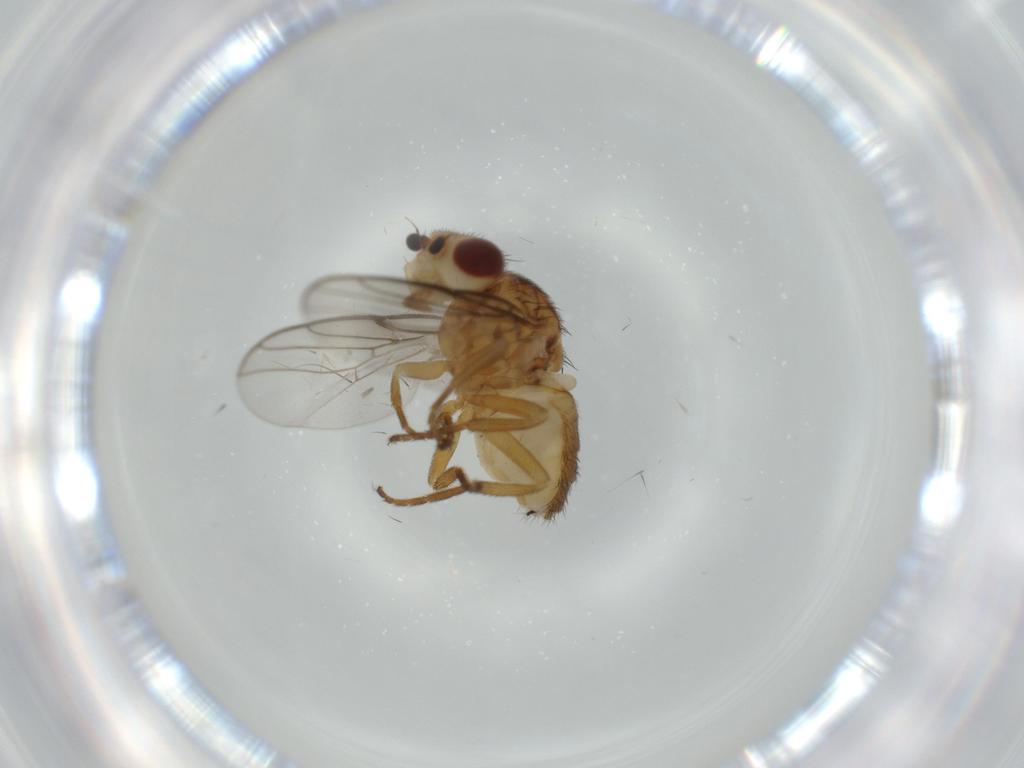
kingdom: Animalia
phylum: Arthropoda
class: Insecta
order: Diptera
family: Chloropidae
